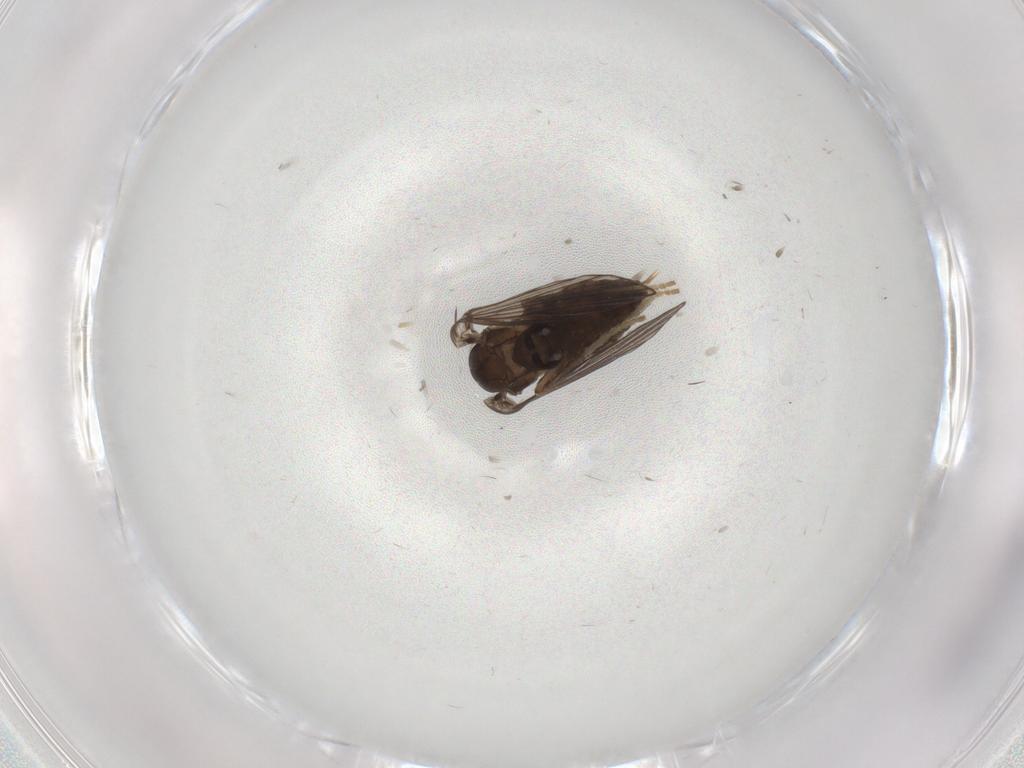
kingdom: Animalia
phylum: Arthropoda
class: Insecta
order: Diptera
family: Psychodidae
